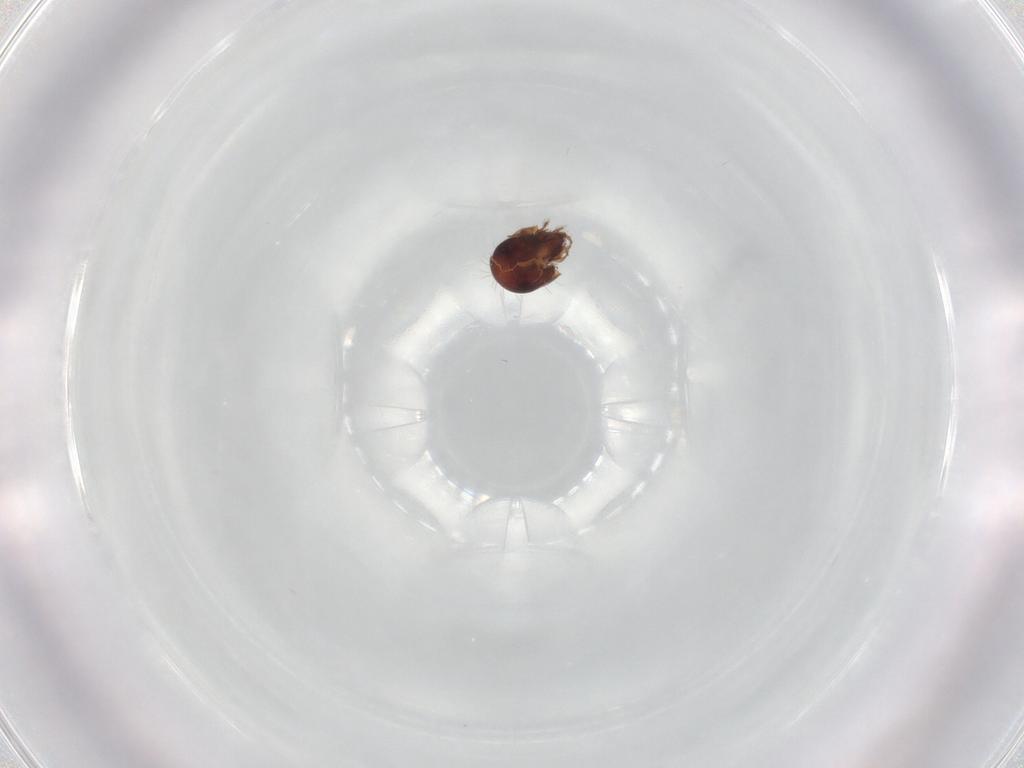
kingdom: Animalia
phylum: Arthropoda
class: Arachnida
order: Sarcoptiformes
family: Humerobatidae
